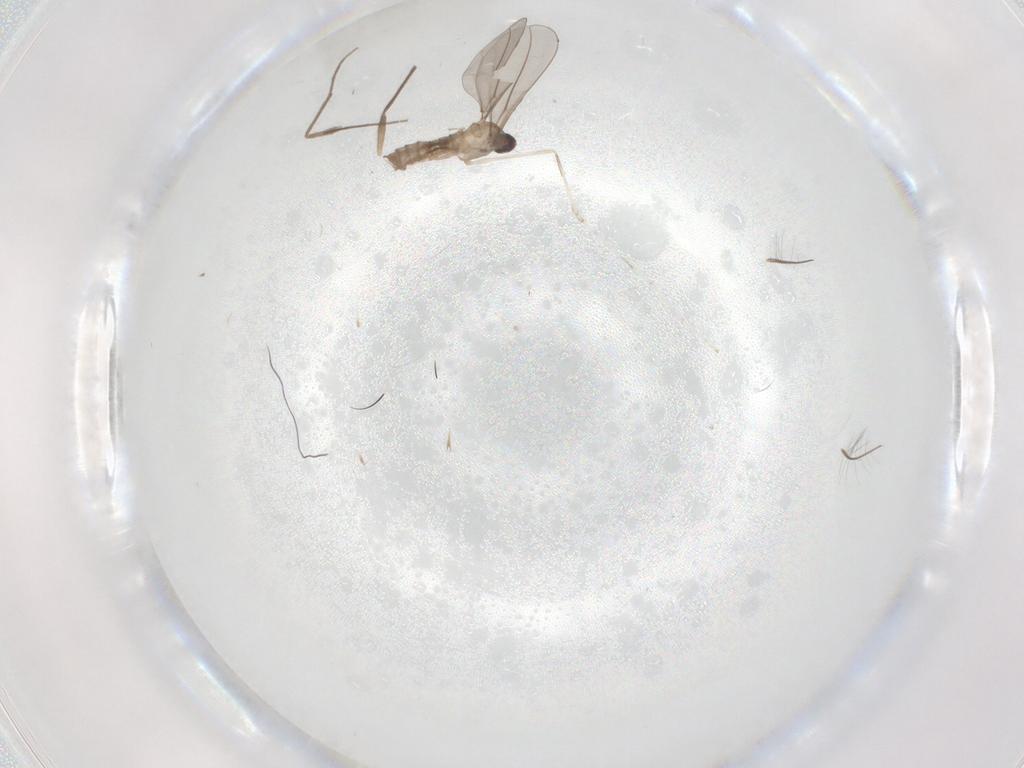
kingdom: Animalia
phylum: Arthropoda
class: Insecta
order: Diptera
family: Cecidomyiidae
